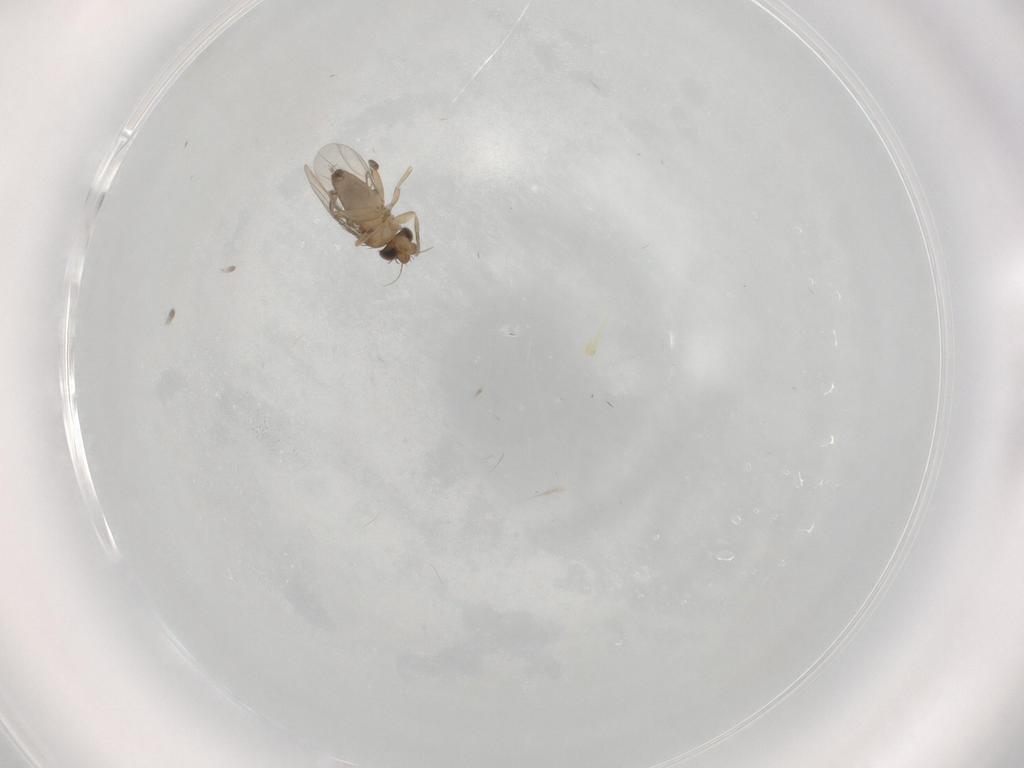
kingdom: Animalia
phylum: Arthropoda
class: Insecta
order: Diptera
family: Phoridae
